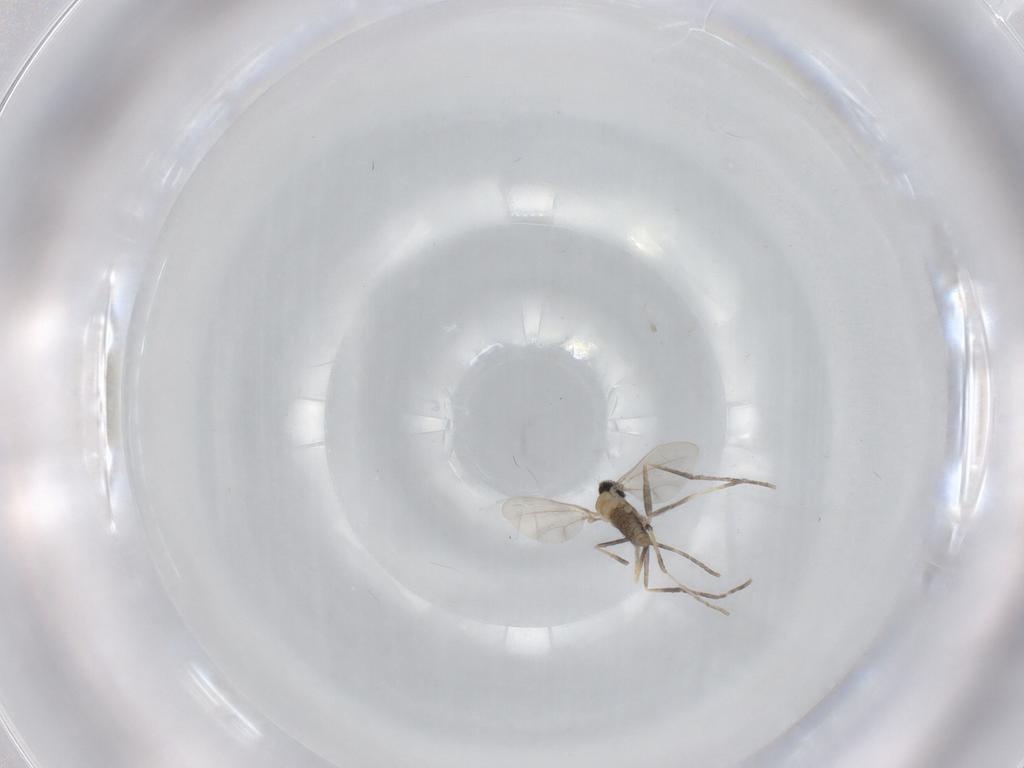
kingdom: Animalia
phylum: Arthropoda
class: Insecta
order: Diptera
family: Cecidomyiidae
